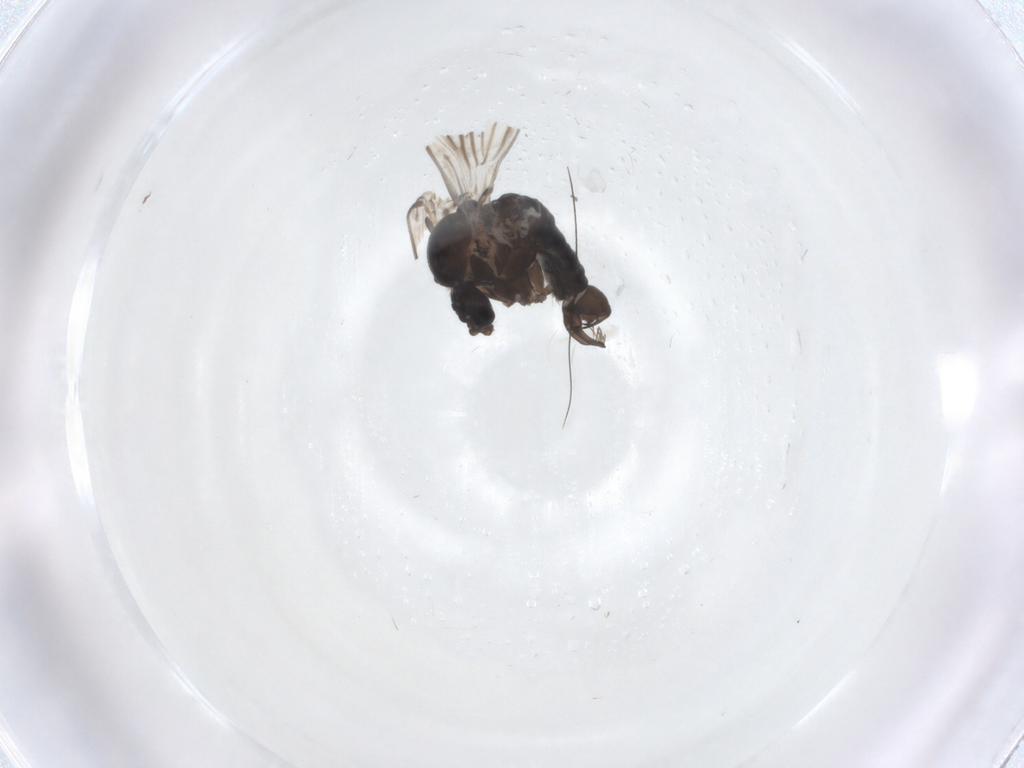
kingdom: Animalia
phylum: Arthropoda
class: Insecta
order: Diptera
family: Psychodidae
